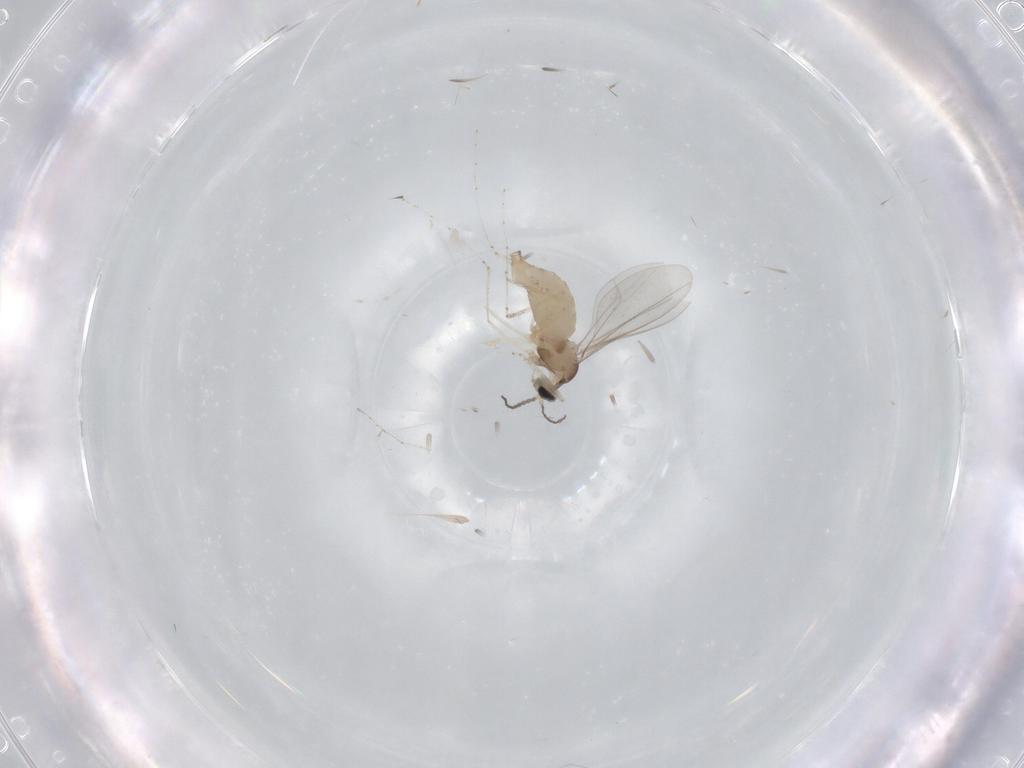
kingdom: Animalia
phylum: Arthropoda
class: Insecta
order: Diptera
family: Cecidomyiidae
